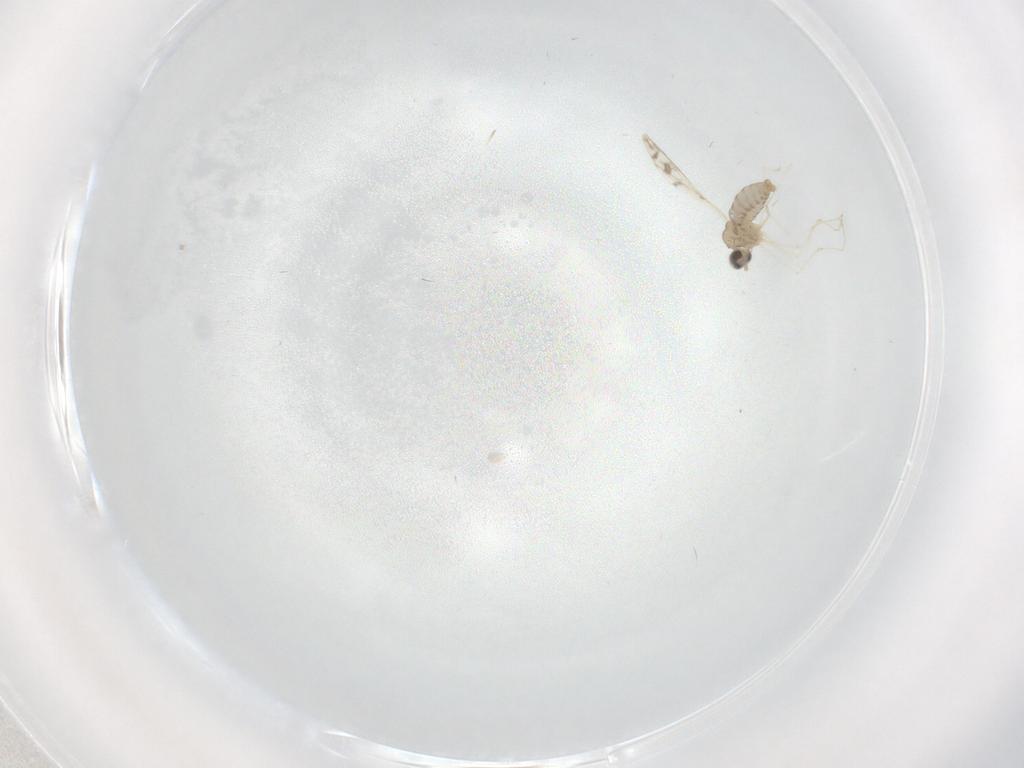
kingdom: Animalia
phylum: Arthropoda
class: Insecta
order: Diptera
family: Cecidomyiidae
